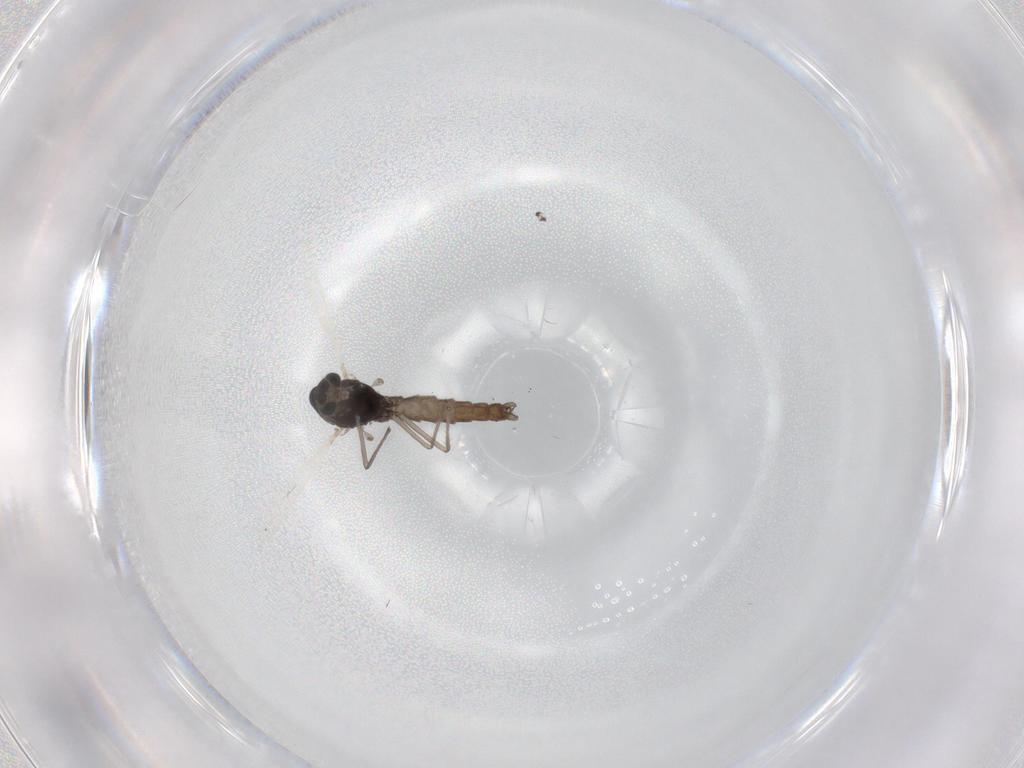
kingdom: Animalia
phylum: Arthropoda
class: Insecta
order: Diptera
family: Chironomidae
